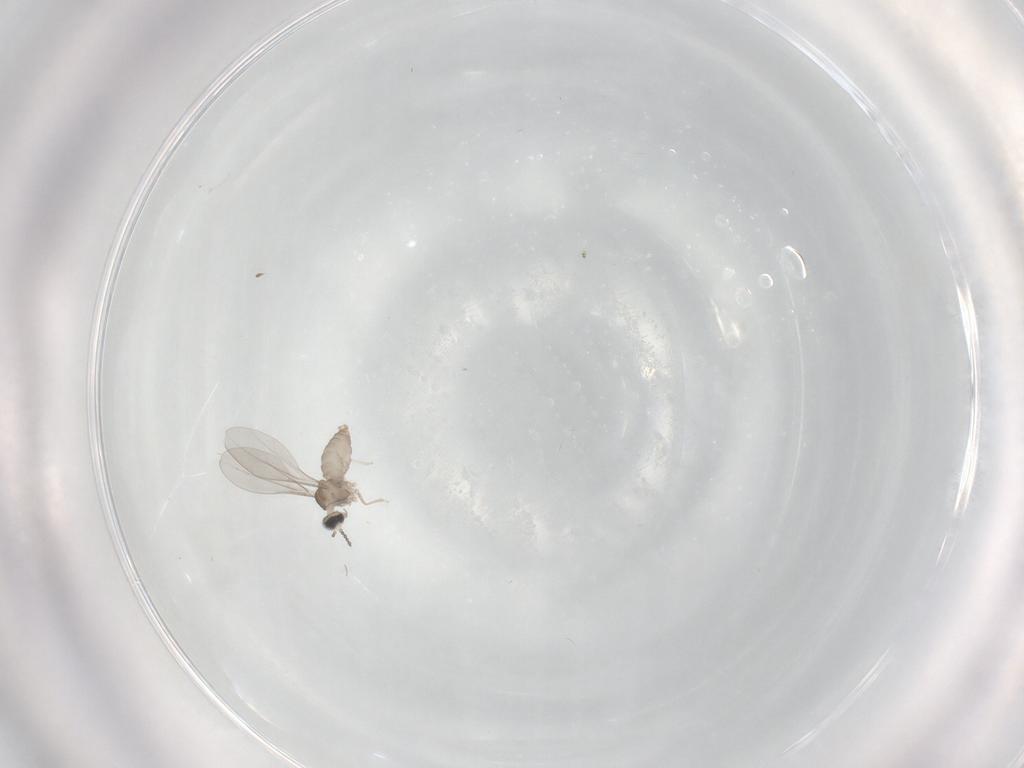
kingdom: Animalia
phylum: Arthropoda
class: Insecta
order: Diptera
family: Cecidomyiidae
